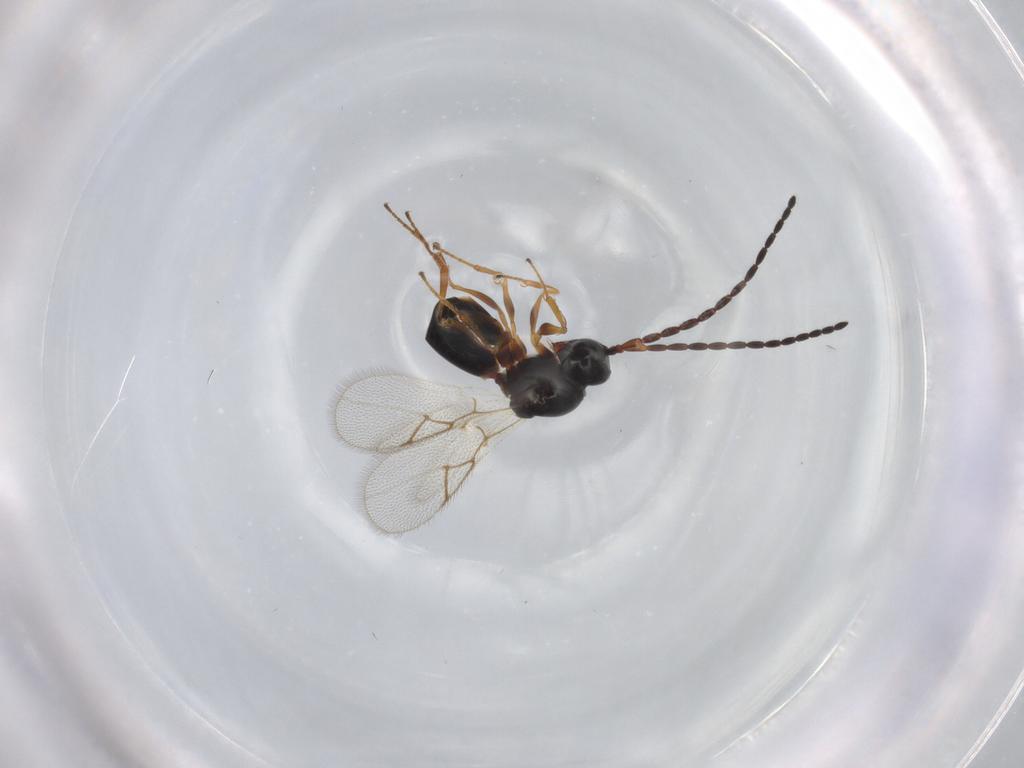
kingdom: Animalia
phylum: Arthropoda
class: Insecta
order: Hymenoptera
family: Figitidae
